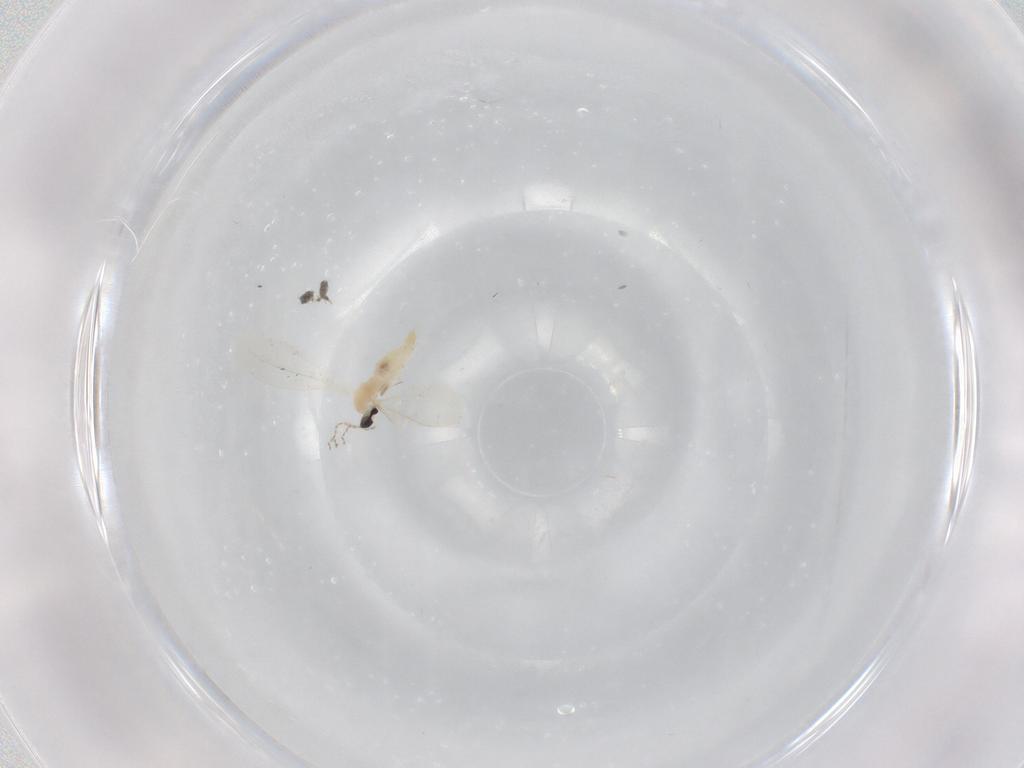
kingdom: Animalia
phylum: Arthropoda
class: Insecta
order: Diptera
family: Cecidomyiidae
